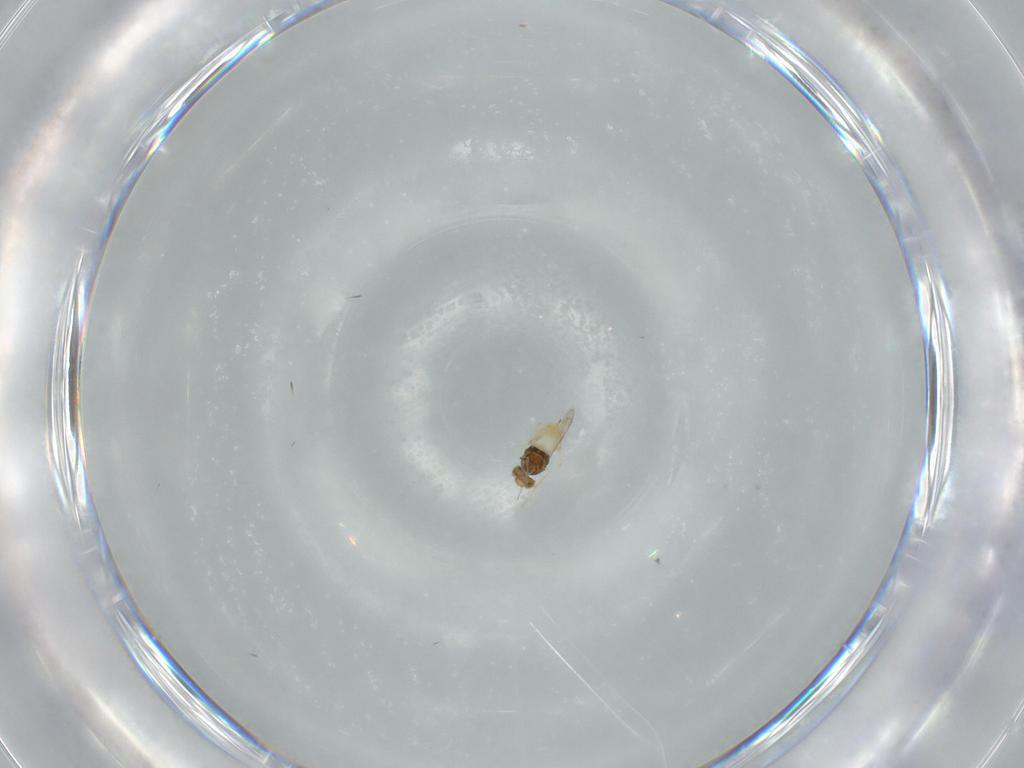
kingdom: Animalia
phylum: Arthropoda
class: Insecta
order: Hymenoptera
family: Aphelinidae
